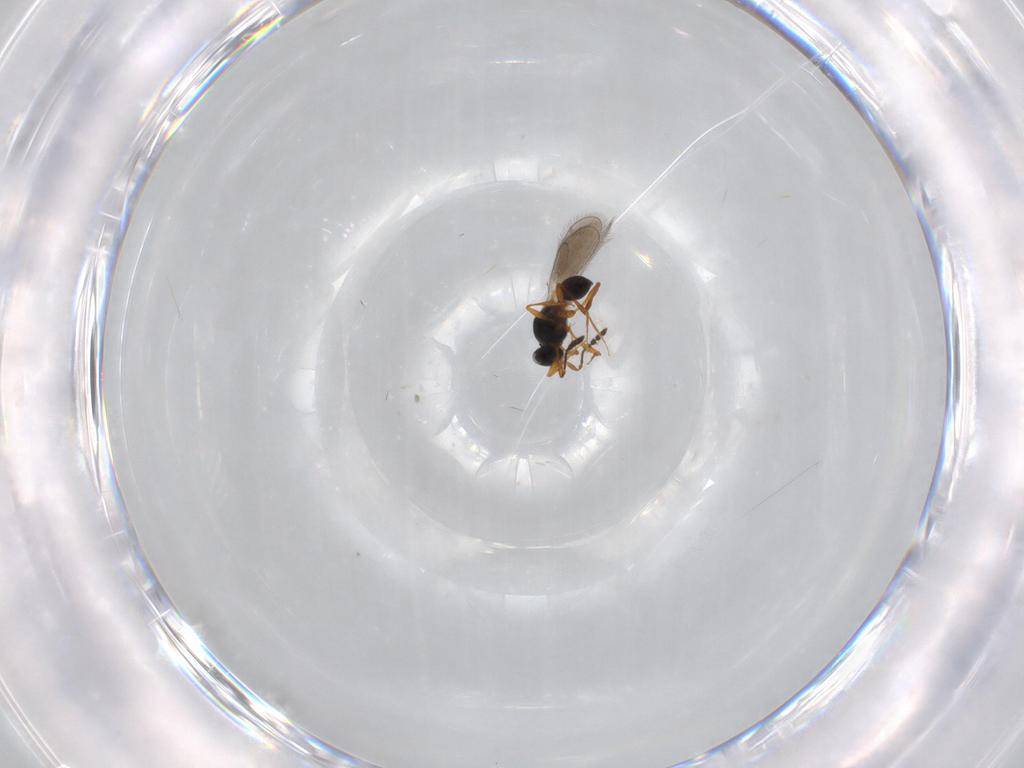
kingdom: Animalia
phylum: Arthropoda
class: Insecta
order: Hymenoptera
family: Platygastridae
